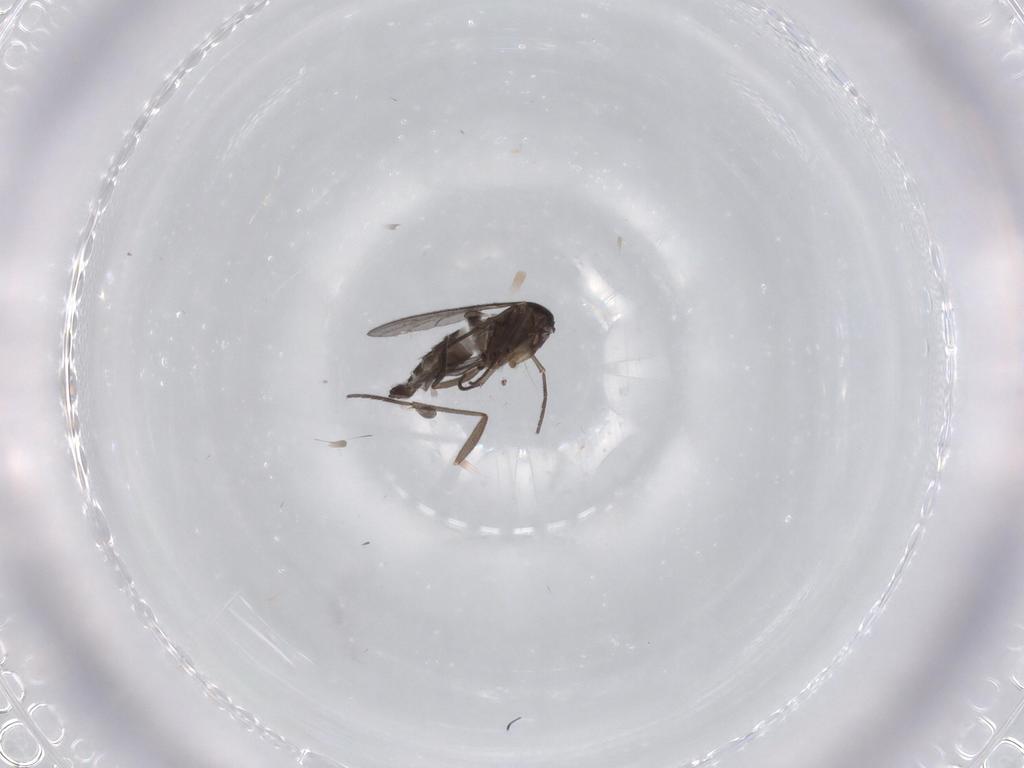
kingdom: Animalia
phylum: Arthropoda
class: Insecta
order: Diptera
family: Sciaridae
